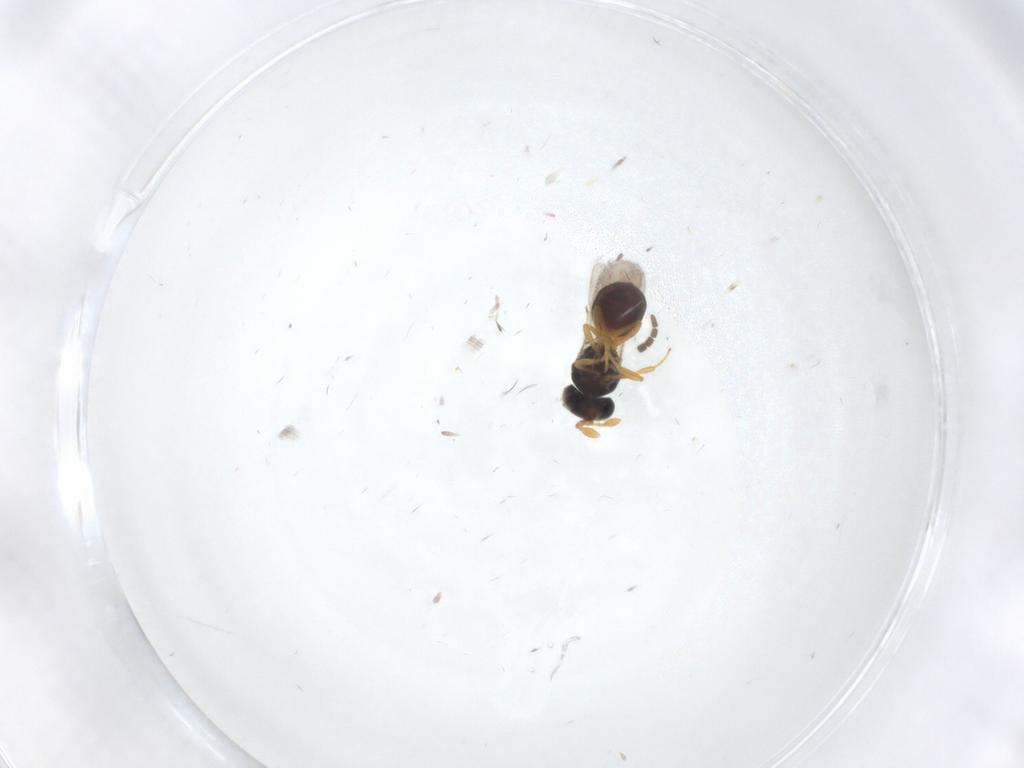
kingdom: Animalia
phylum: Arthropoda
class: Insecta
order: Hymenoptera
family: Scelionidae
